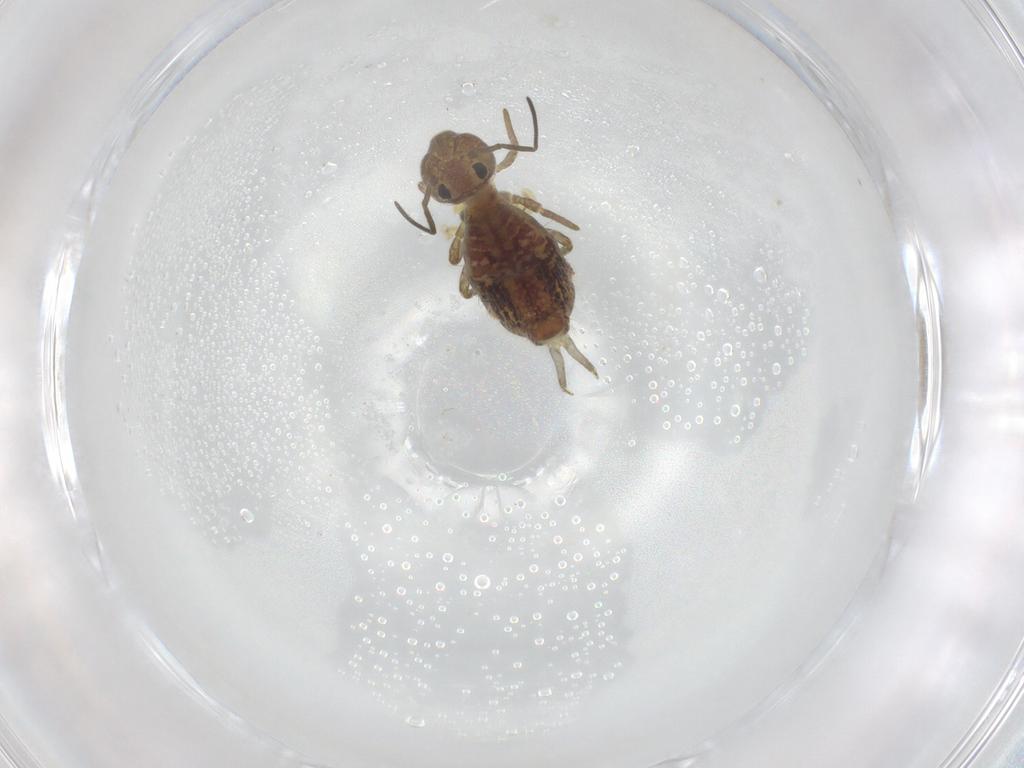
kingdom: Animalia
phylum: Arthropoda
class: Collembola
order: Symphypleona
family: Sminthuridae
